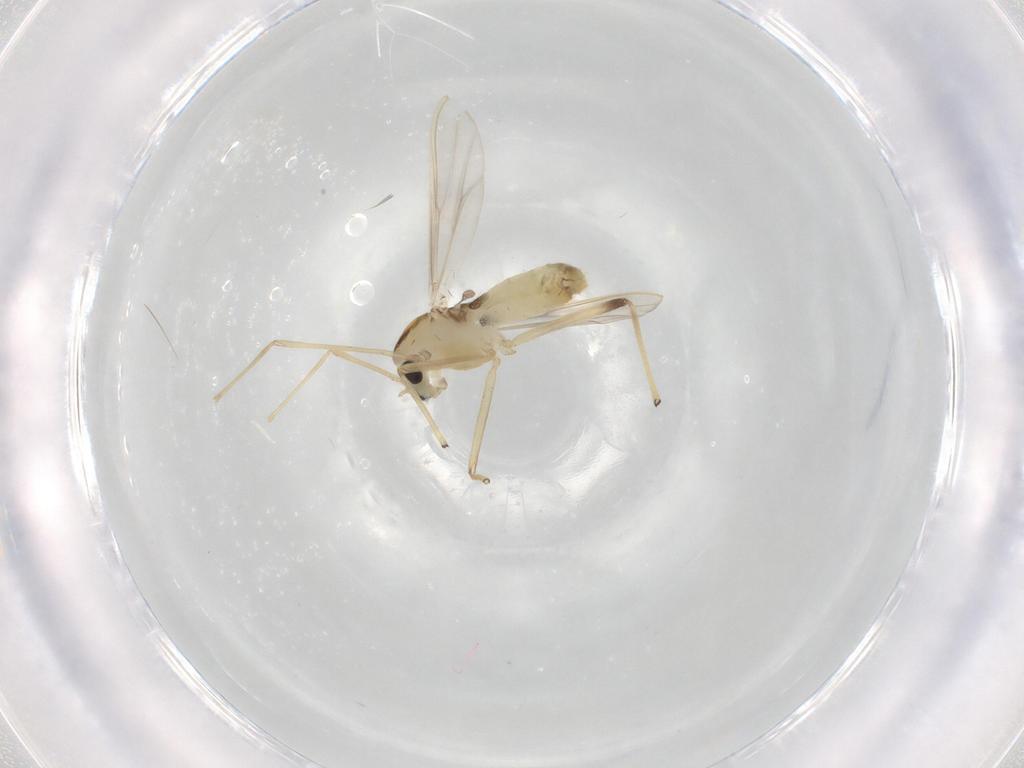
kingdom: Animalia
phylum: Arthropoda
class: Insecta
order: Diptera
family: Chironomidae
